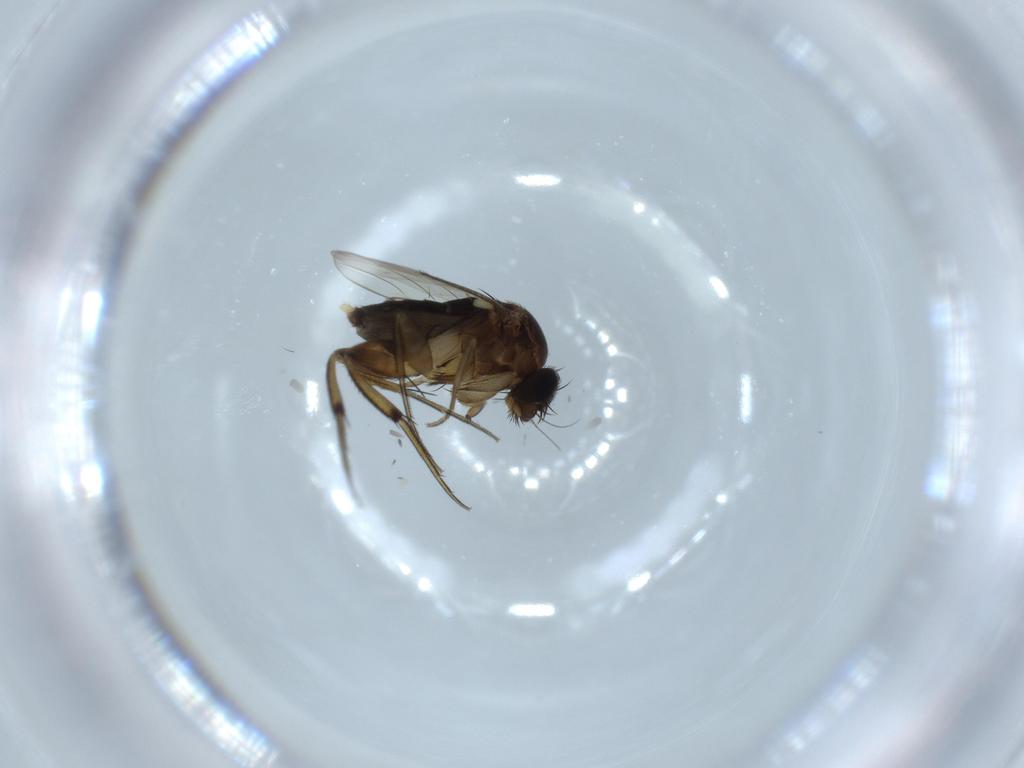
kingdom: Animalia
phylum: Arthropoda
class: Insecta
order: Diptera
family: Phoridae
